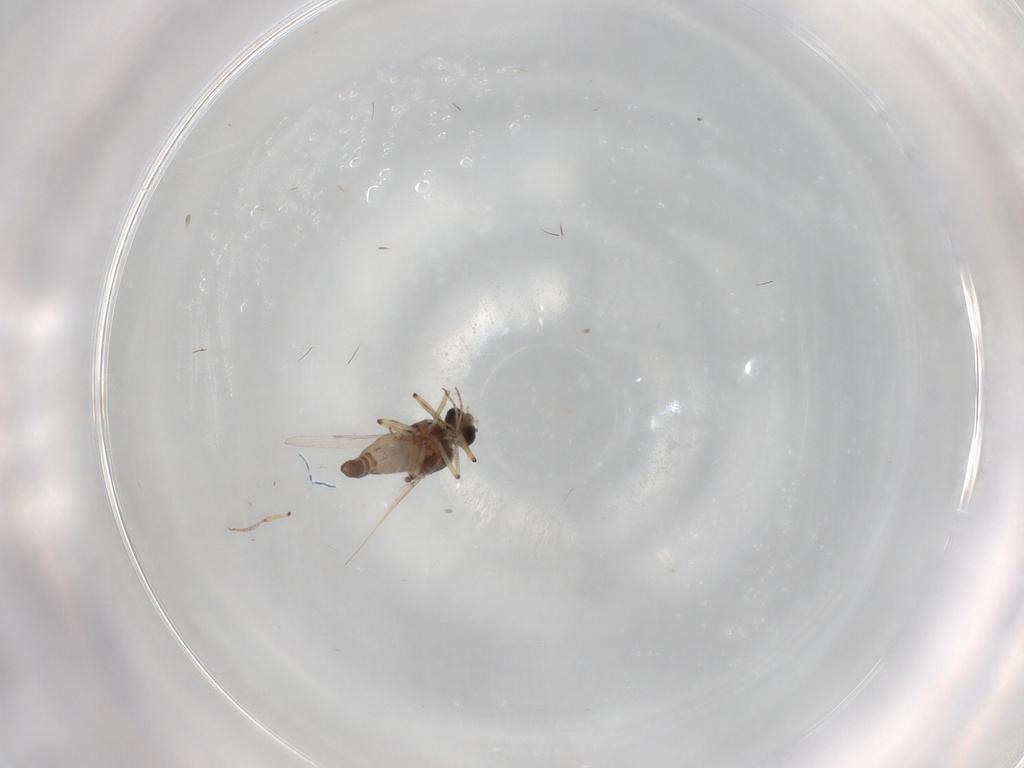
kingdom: Animalia
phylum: Arthropoda
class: Insecta
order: Diptera
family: Ceratopogonidae
